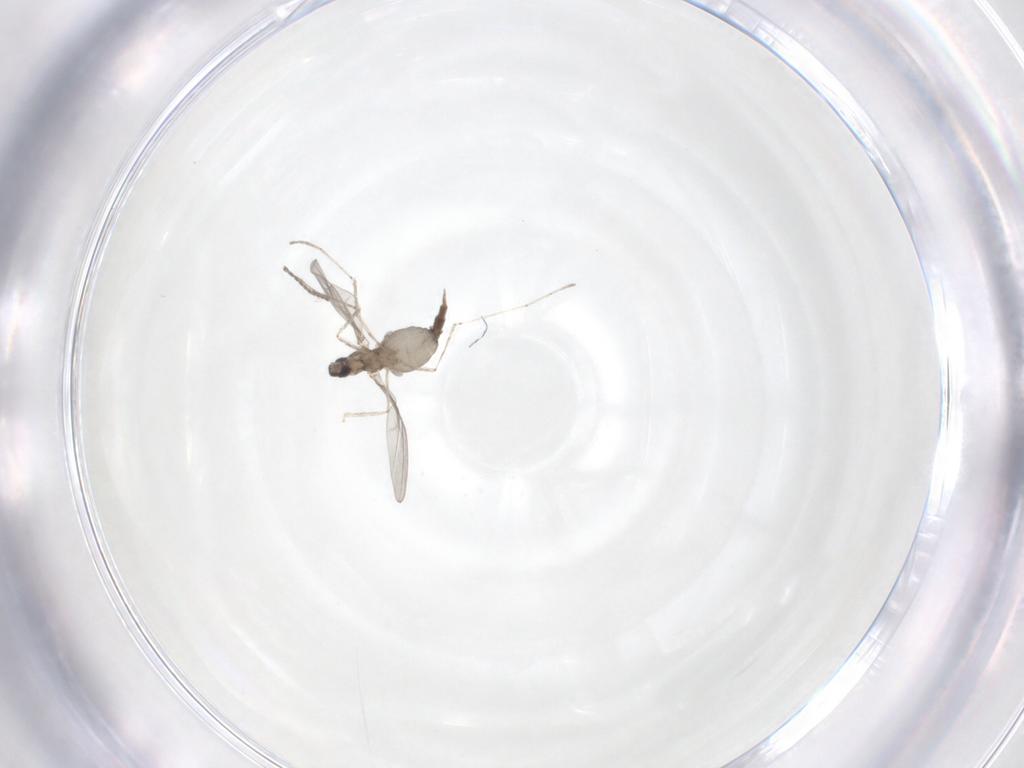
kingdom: Animalia
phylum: Arthropoda
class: Insecta
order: Diptera
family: Cecidomyiidae
